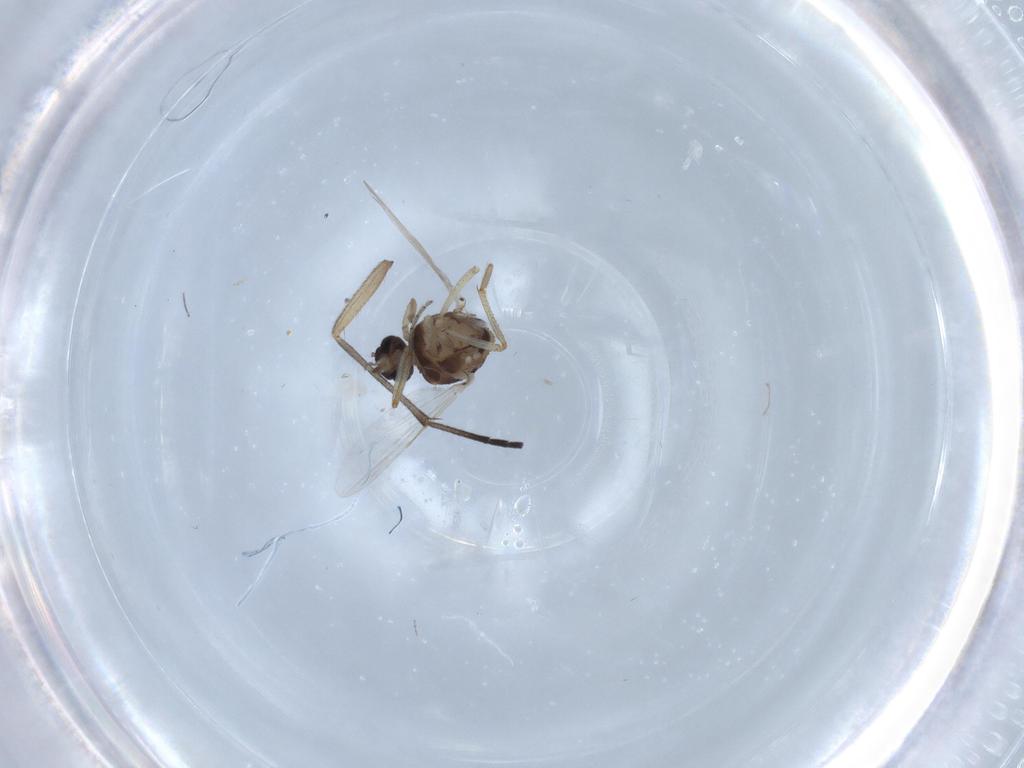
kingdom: Animalia
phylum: Arthropoda
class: Insecta
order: Diptera
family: Ceratopogonidae
